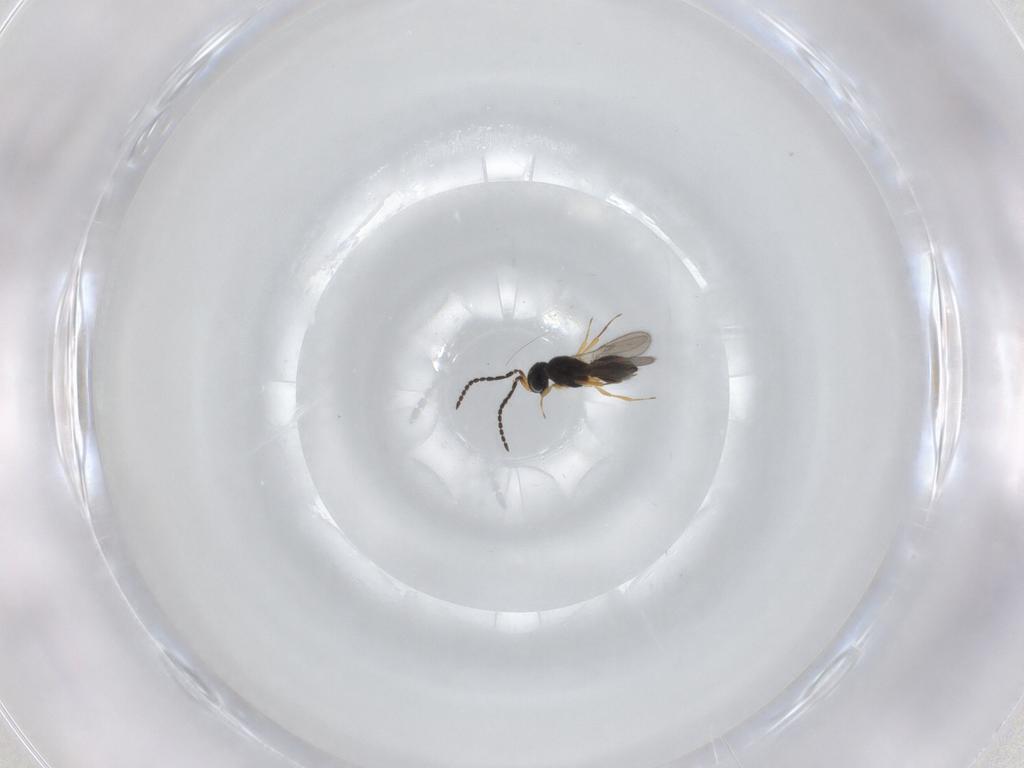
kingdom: Animalia
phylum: Arthropoda
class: Insecta
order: Hymenoptera
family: Scelionidae
